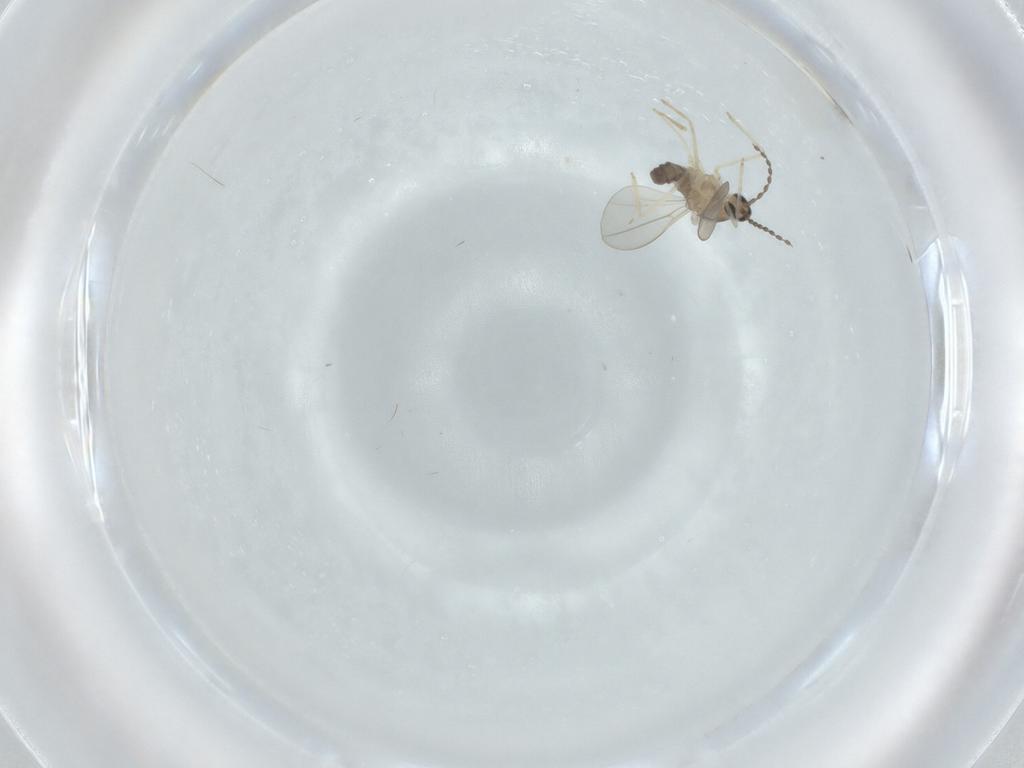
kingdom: Animalia
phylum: Arthropoda
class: Insecta
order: Diptera
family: Cecidomyiidae
